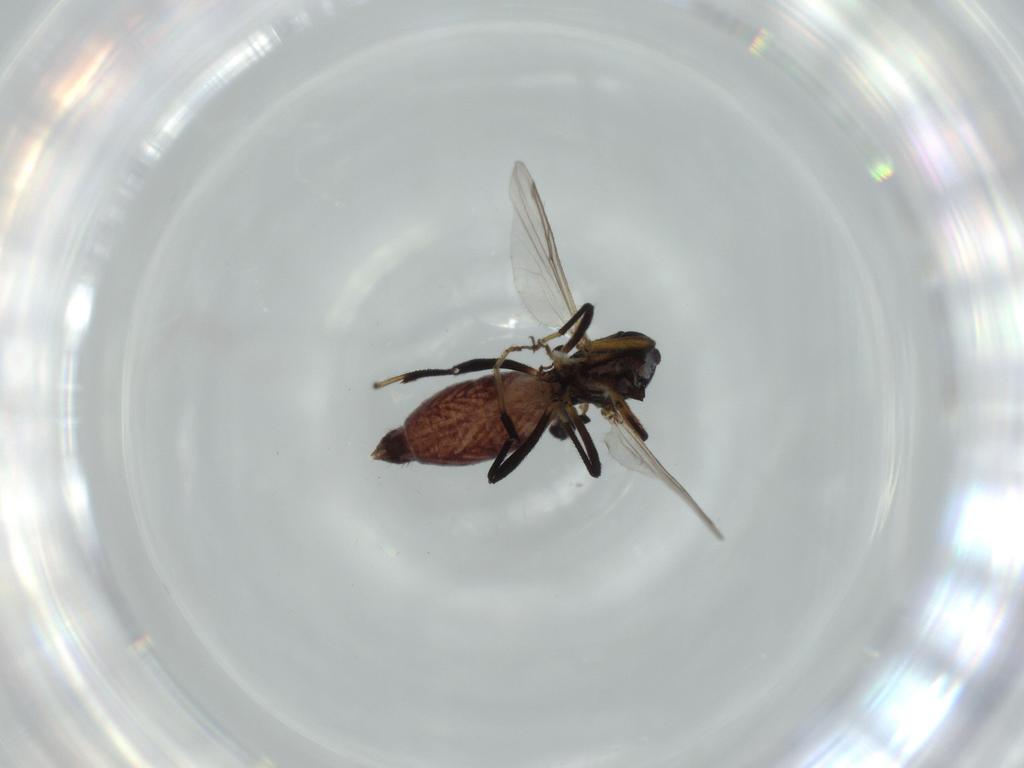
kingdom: Animalia
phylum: Arthropoda
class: Insecta
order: Diptera
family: Ceratopogonidae
